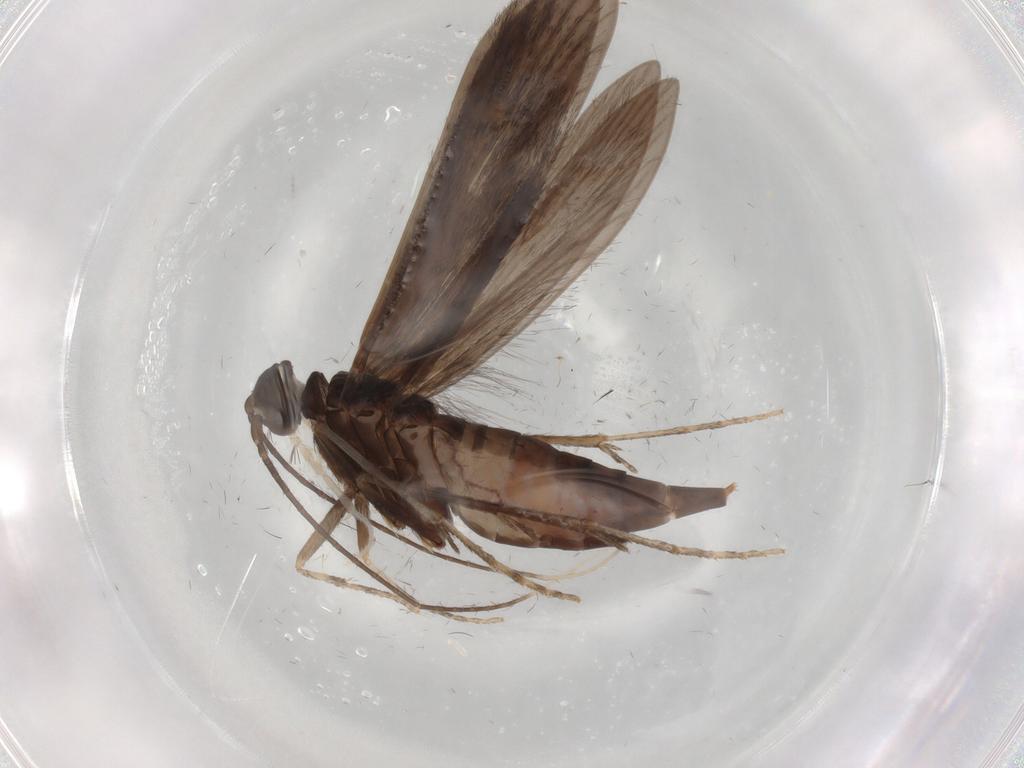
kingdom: Animalia
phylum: Arthropoda
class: Insecta
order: Trichoptera
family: Xiphocentronidae
